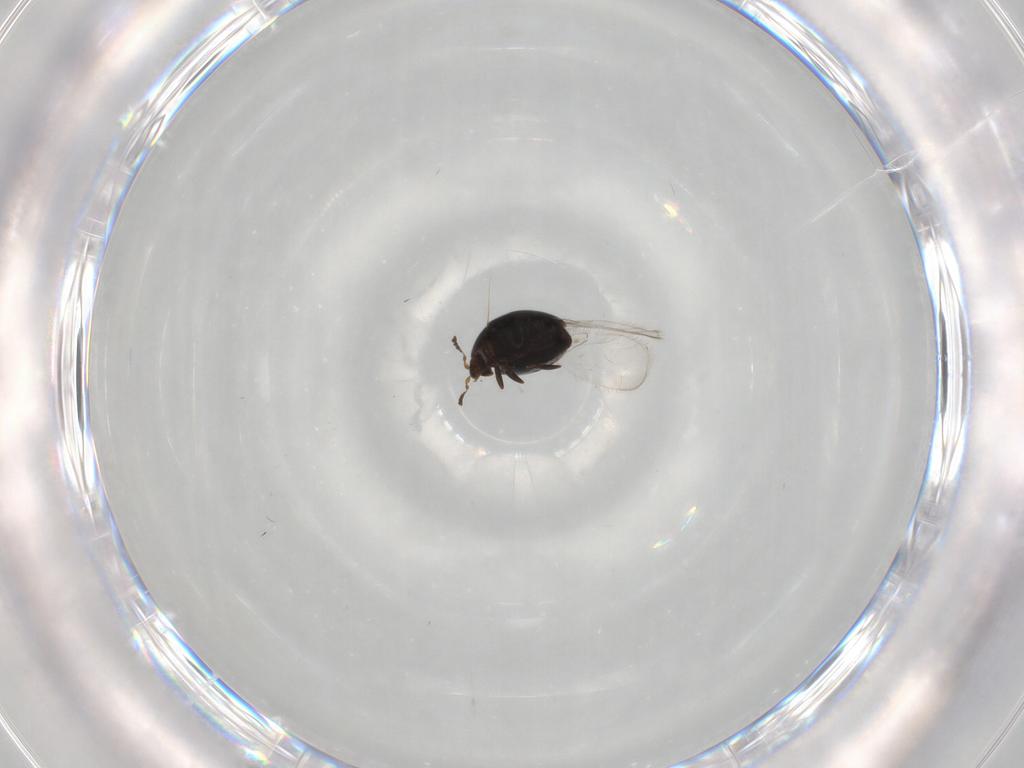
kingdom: Animalia
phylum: Arthropoda
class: Insecta
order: Coleoptera
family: Corylophidae
